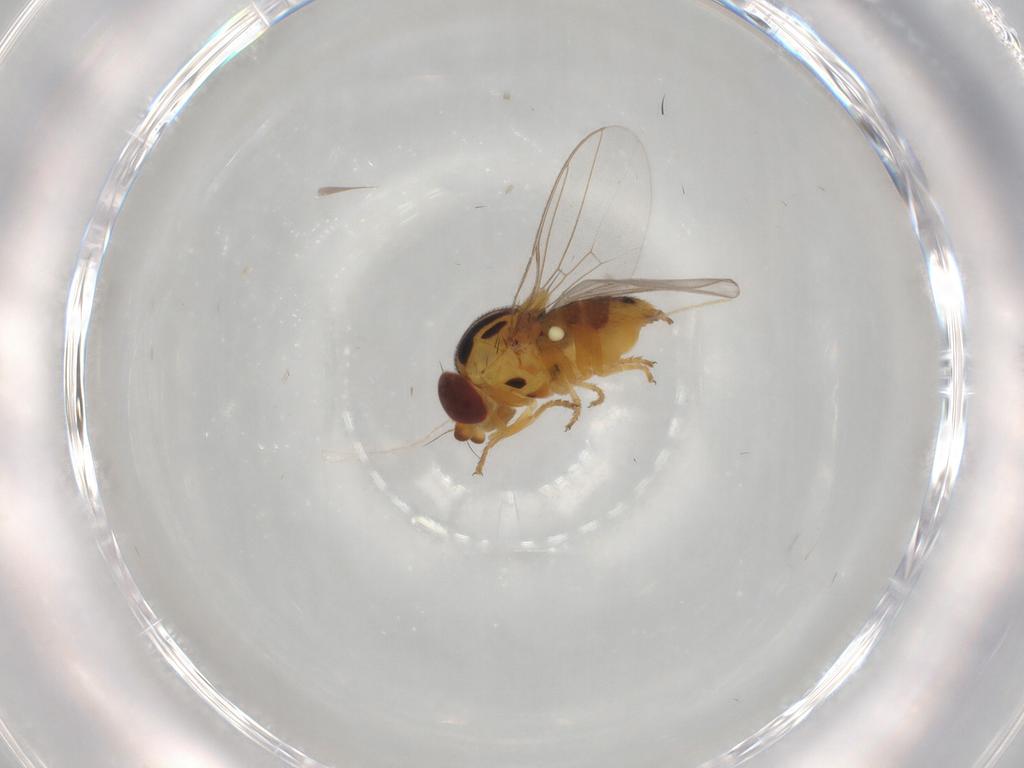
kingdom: Animalia
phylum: Arthropoda
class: Insecta
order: Diptera
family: Chloropidae
